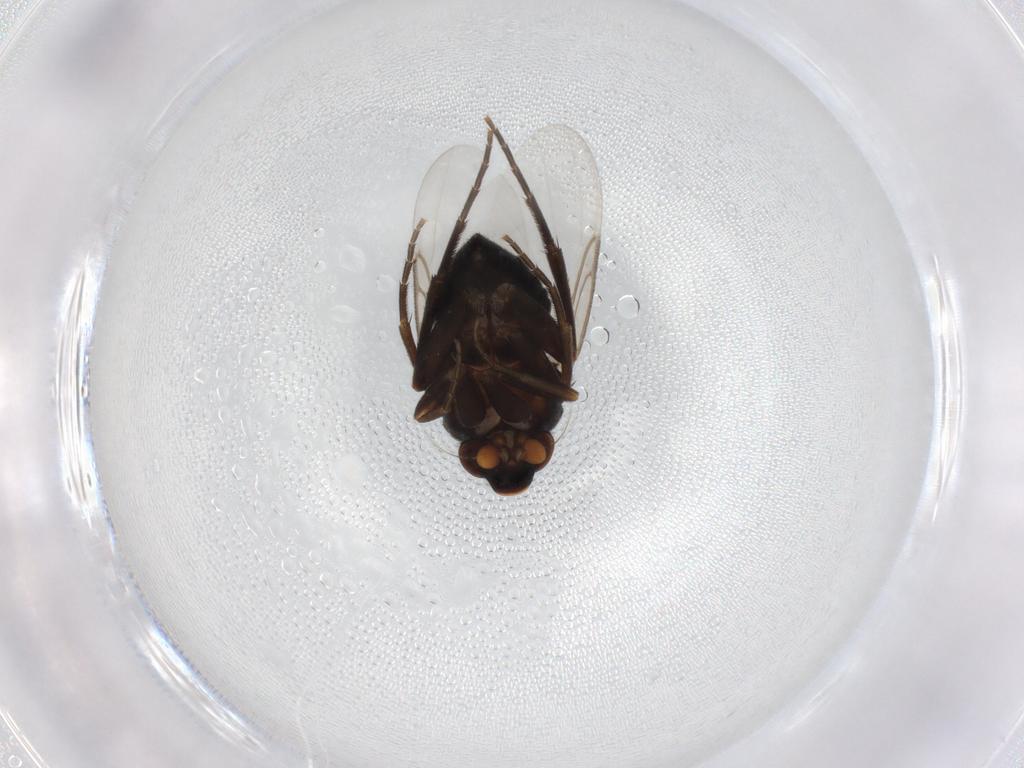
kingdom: Animalia
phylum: Arthropoda
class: Insecta
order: Diptera
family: Phoridae
